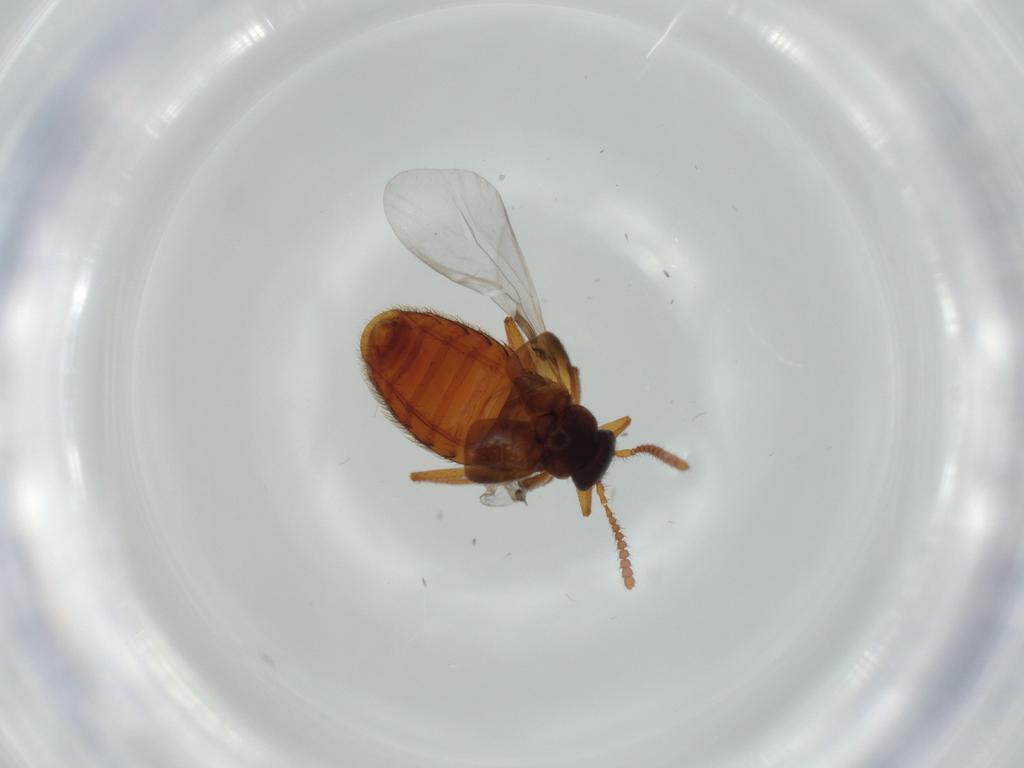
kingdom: Animalia
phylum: Arthropoda
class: Insecta
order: Coleoptera
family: Staphylinidae
